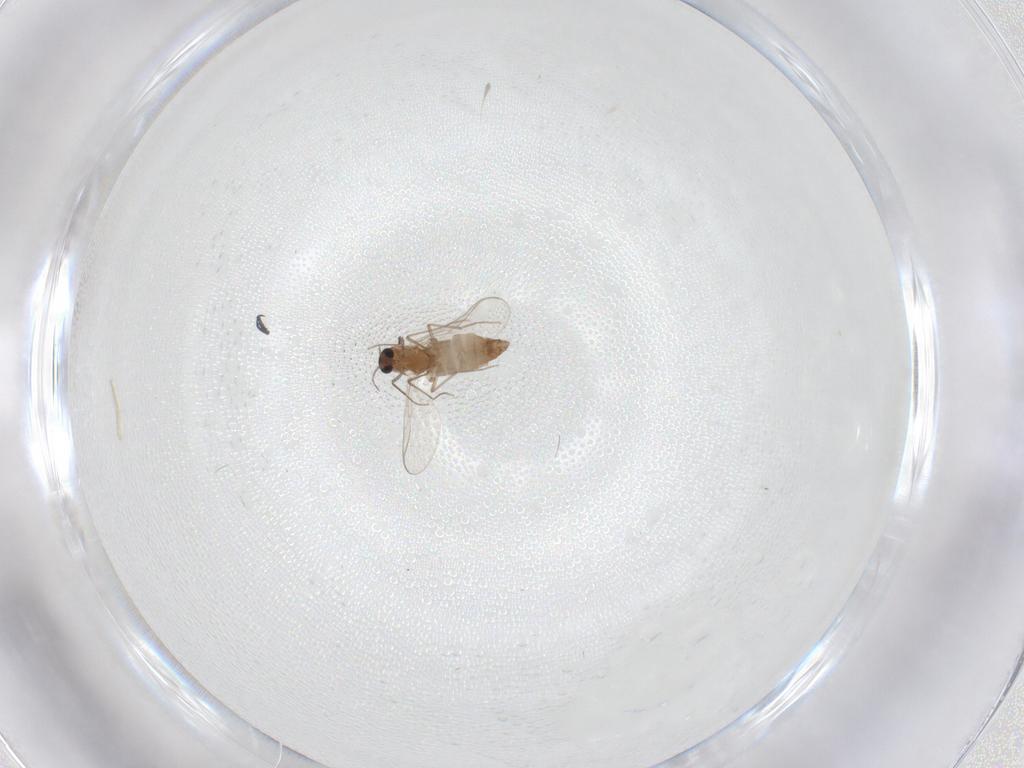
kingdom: Animalia
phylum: Arthropoda
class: Insecta
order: Diptera
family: Chironomidae
